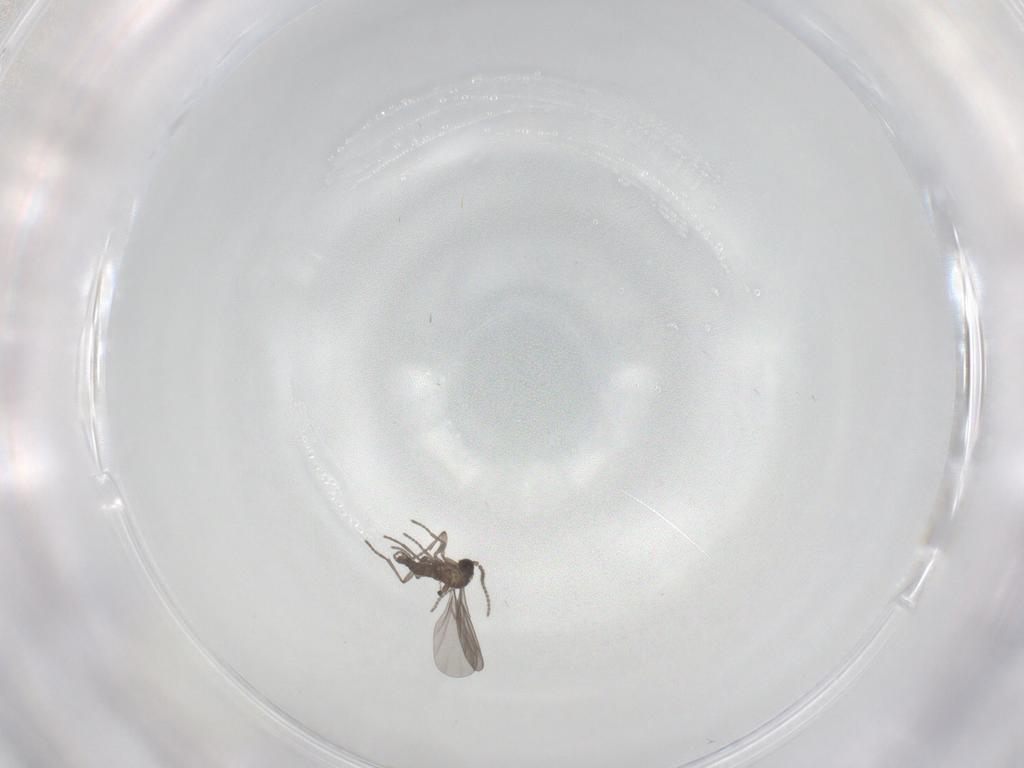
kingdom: Animalia
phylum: Arthropoda
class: Insecta
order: Diptera
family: Sciaridae
